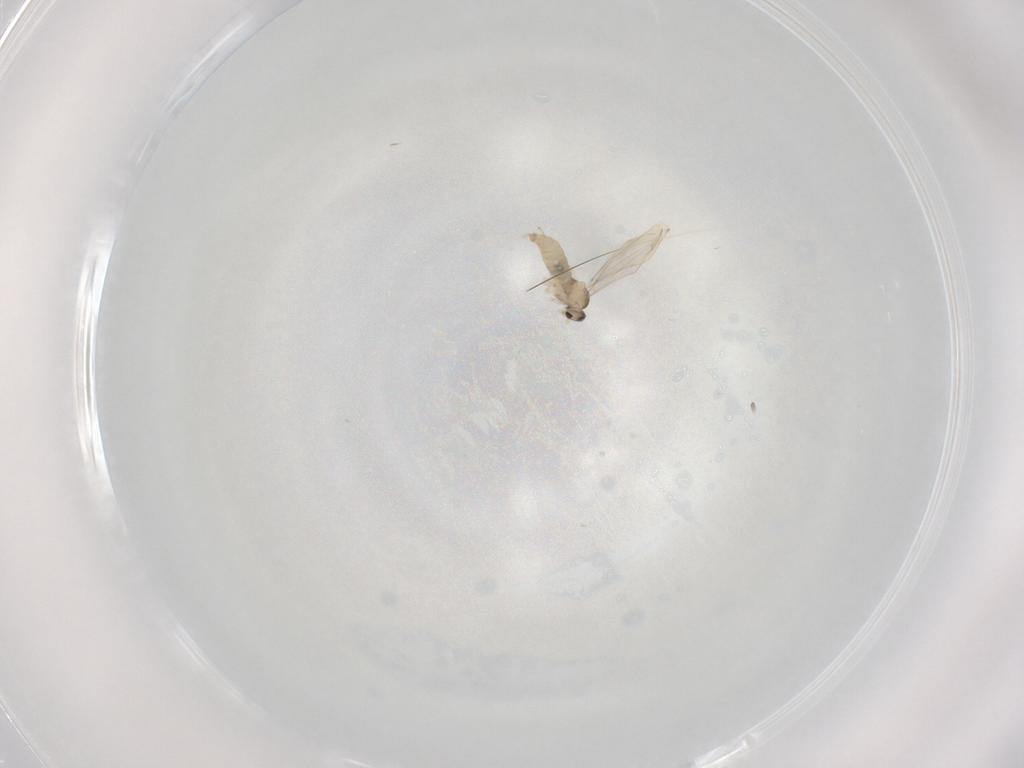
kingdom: Animalia
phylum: Arthropoda
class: Insecta
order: Diptera
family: Cecidomyiidae
